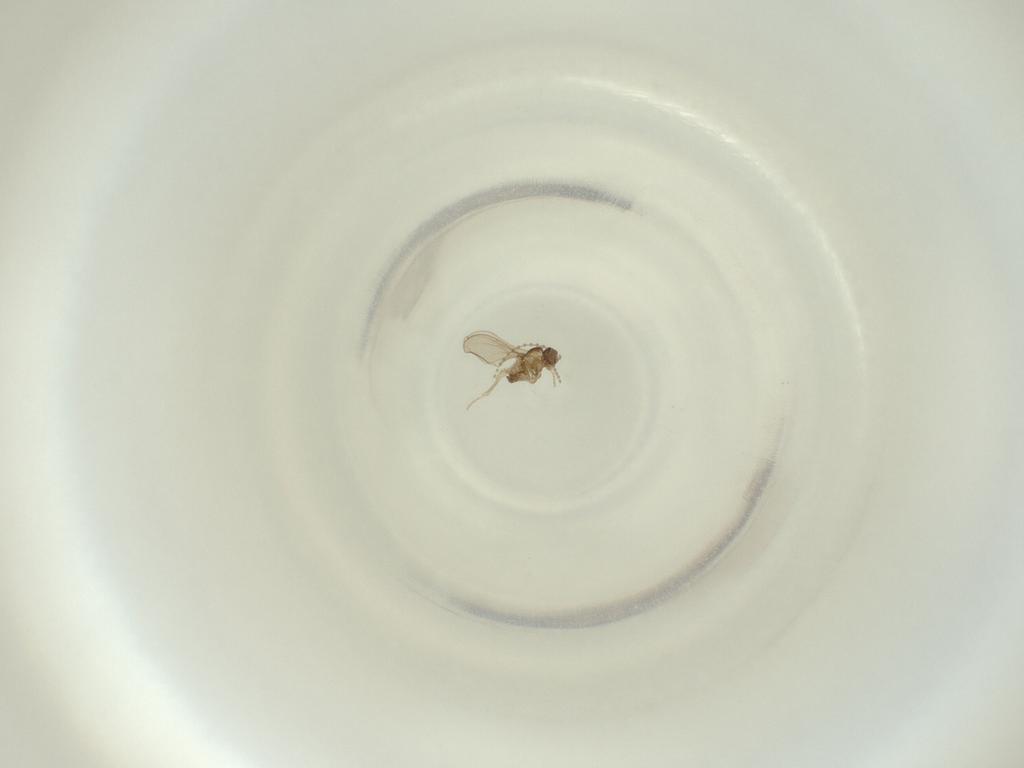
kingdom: Animalia
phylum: Arthropoda
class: Insecta
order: Diptera
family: Cecidomyiidae
